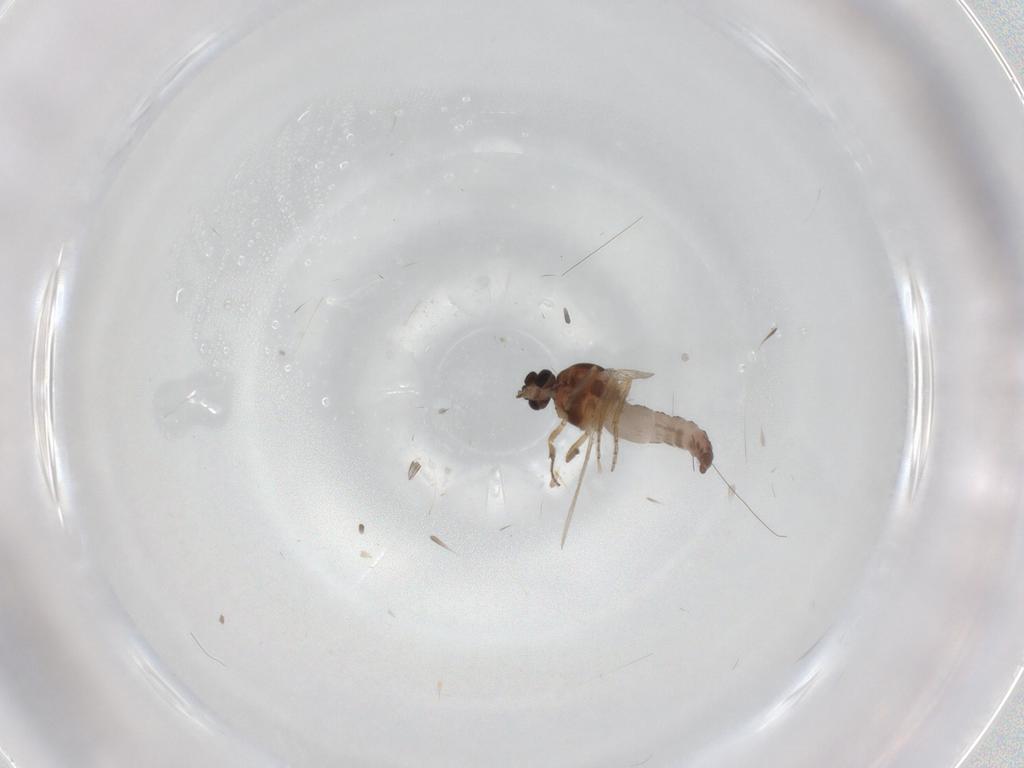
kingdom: Animalia
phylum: Arthropoda
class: Insecta
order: Diptera
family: Ceratopogonidae
